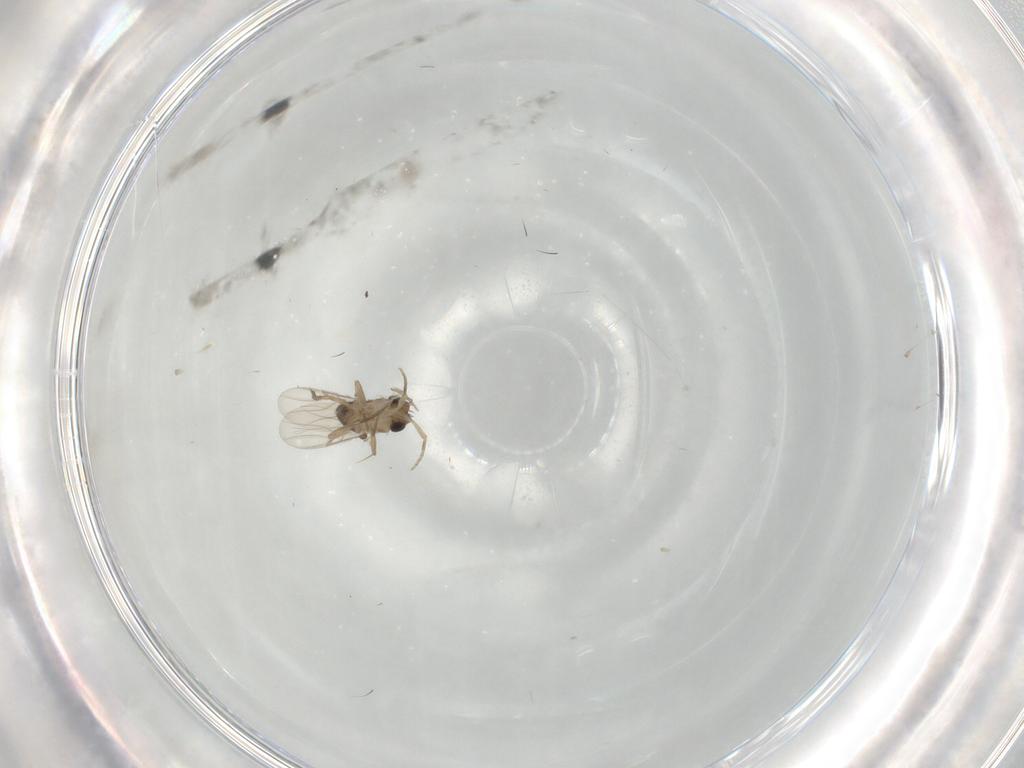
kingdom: Animalia
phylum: Arthropoda
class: Insecta
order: Diptera
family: Phoridae
